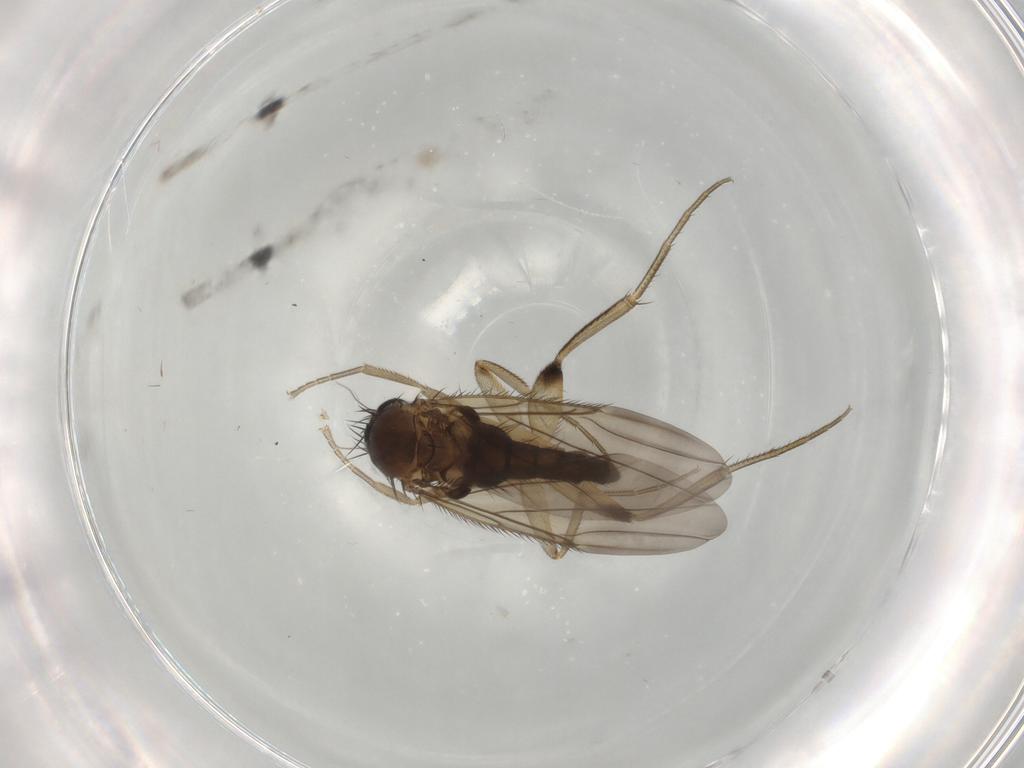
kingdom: Animalia
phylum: Arthropoda
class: Insecta
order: Diptera
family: Phoridae
